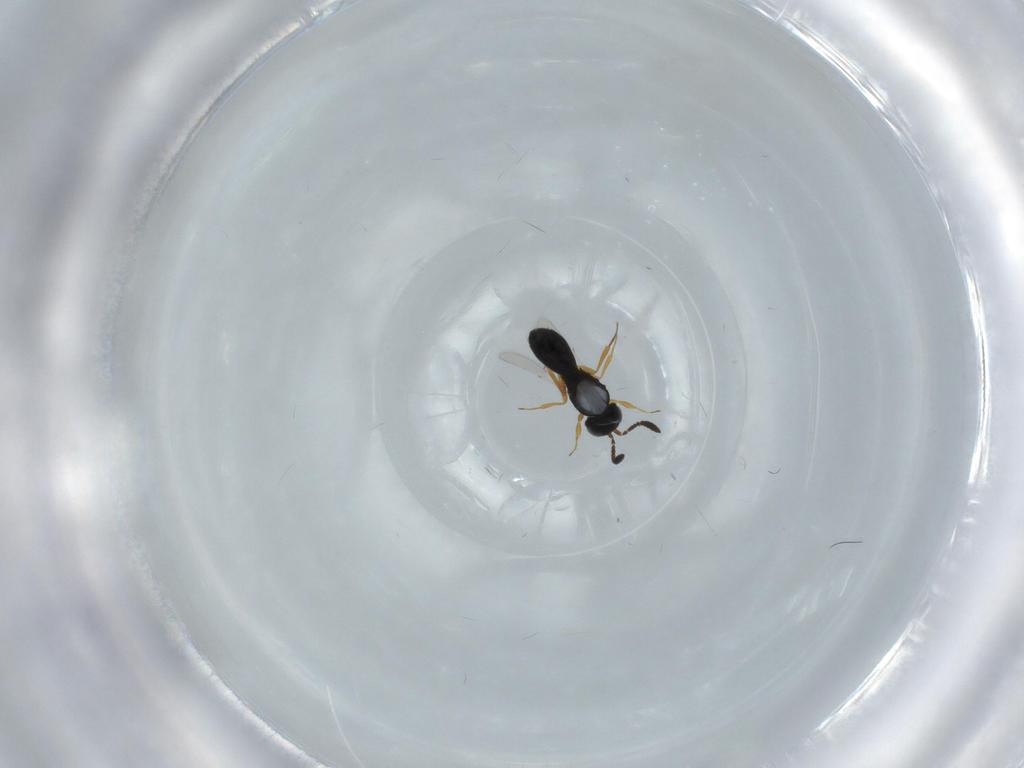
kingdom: Animalia
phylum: Arthropoda
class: Insecta
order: Hymenoptera
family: Scelionidae
